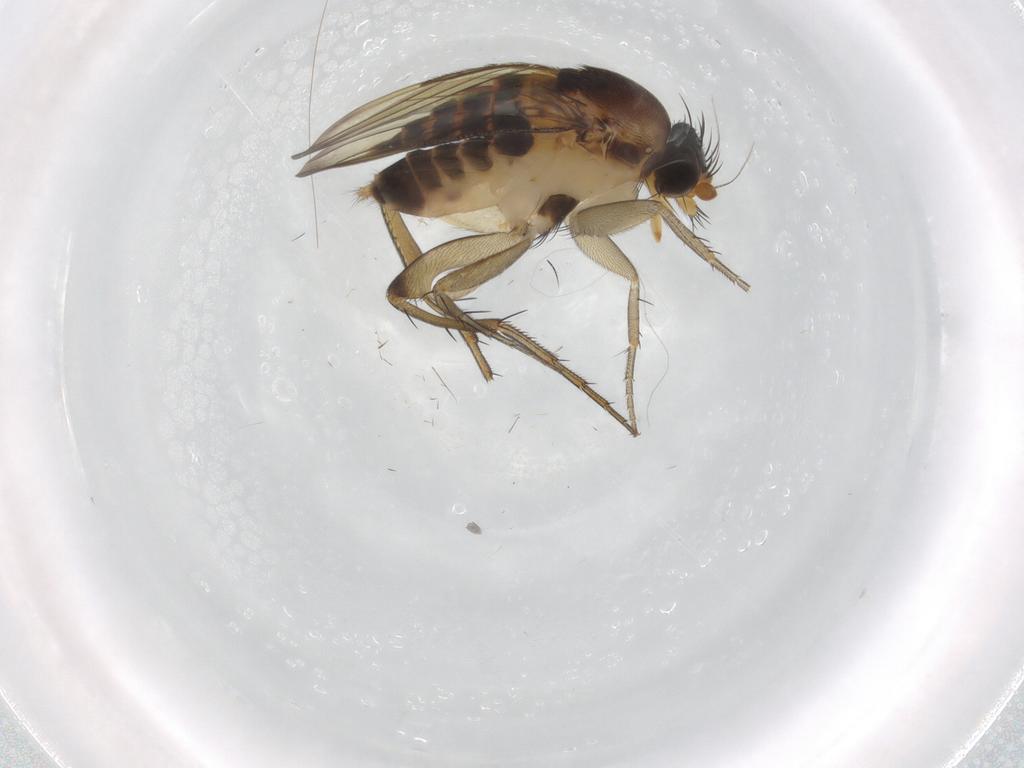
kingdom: Animalia
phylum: Arthropoda
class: Insecta
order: Diptera
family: Phoridae
